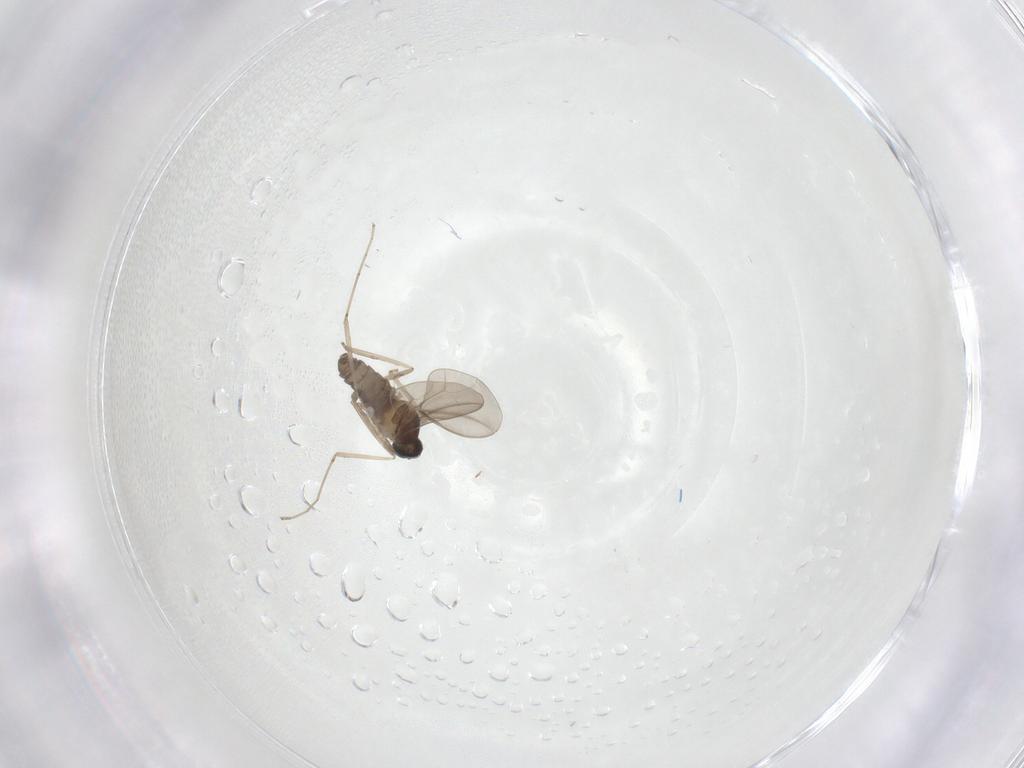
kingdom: Animalia
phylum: Arthropoda
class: Insecta
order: Diptera
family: Cecidomyiidae
